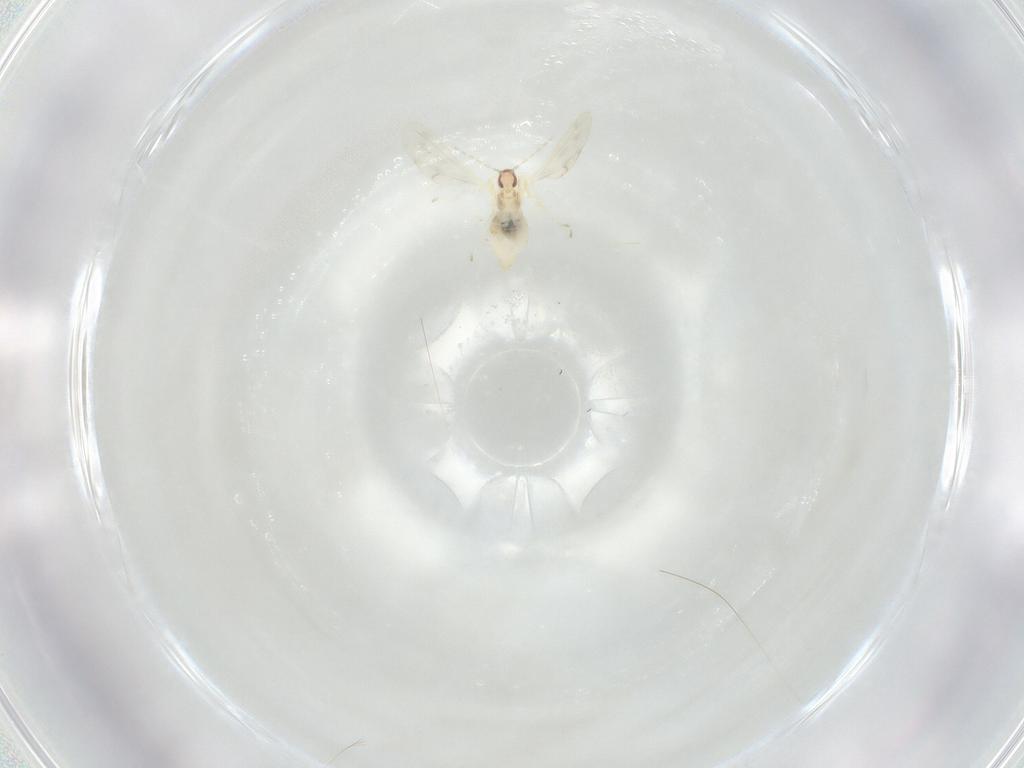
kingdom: Animalia
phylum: Arthropoda
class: Insecta
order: Diptera
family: Cecidomyiidae
